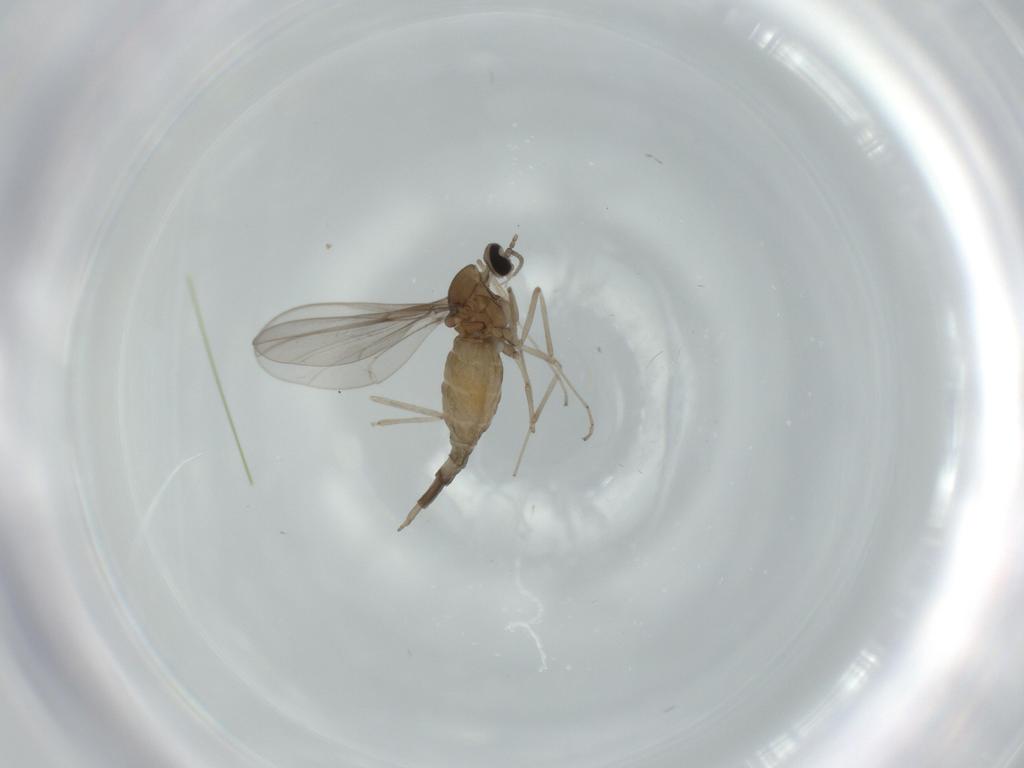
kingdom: Animalia
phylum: Arthropoda
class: Insecta
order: Diptera
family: Cecidomyiidae
